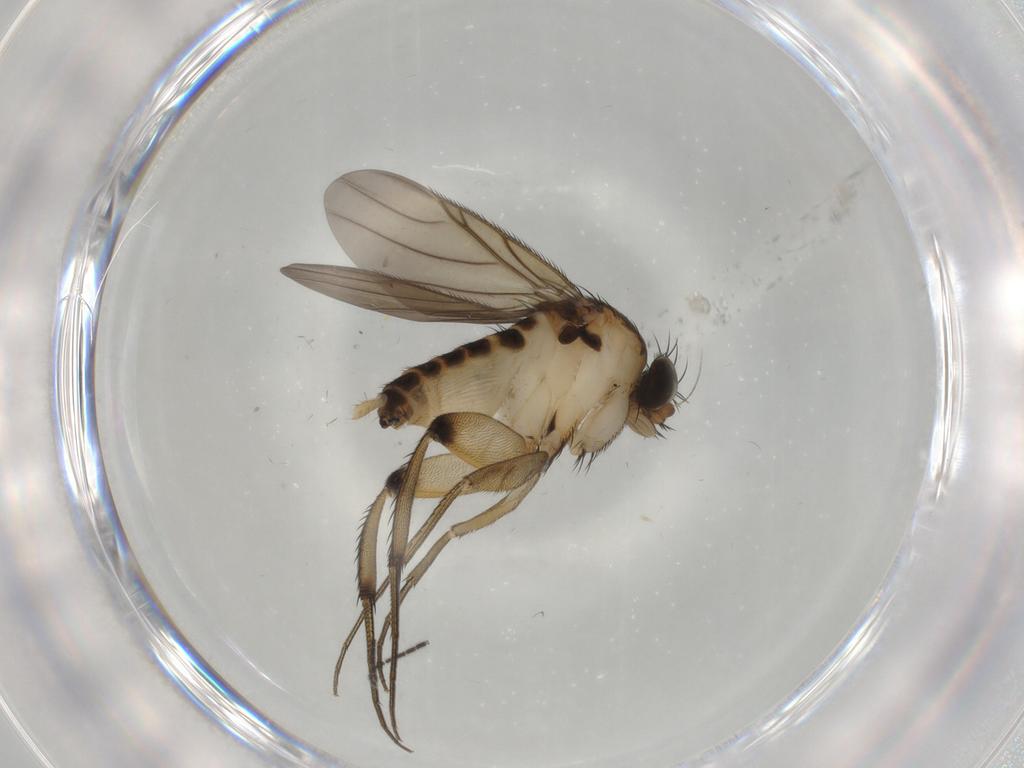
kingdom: Animalia
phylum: Arthropoda
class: Insecta
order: Diptera
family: Phoridae
